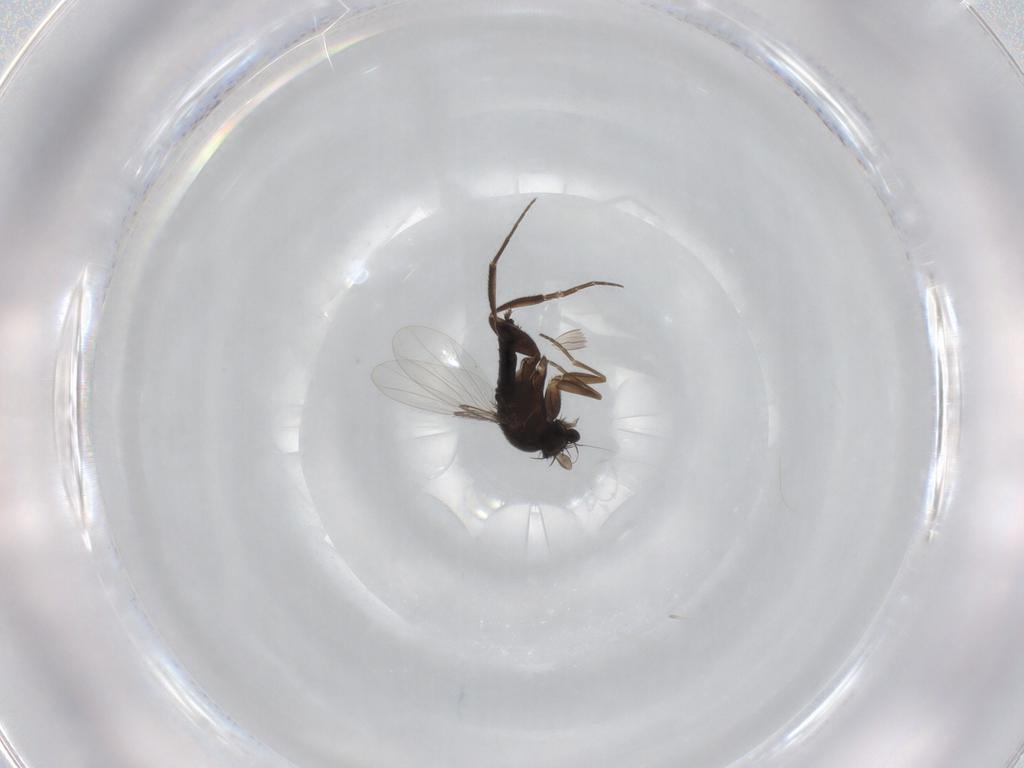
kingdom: Animalia
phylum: Arthropoda
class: Insecta
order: Diptera
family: Phoridae
